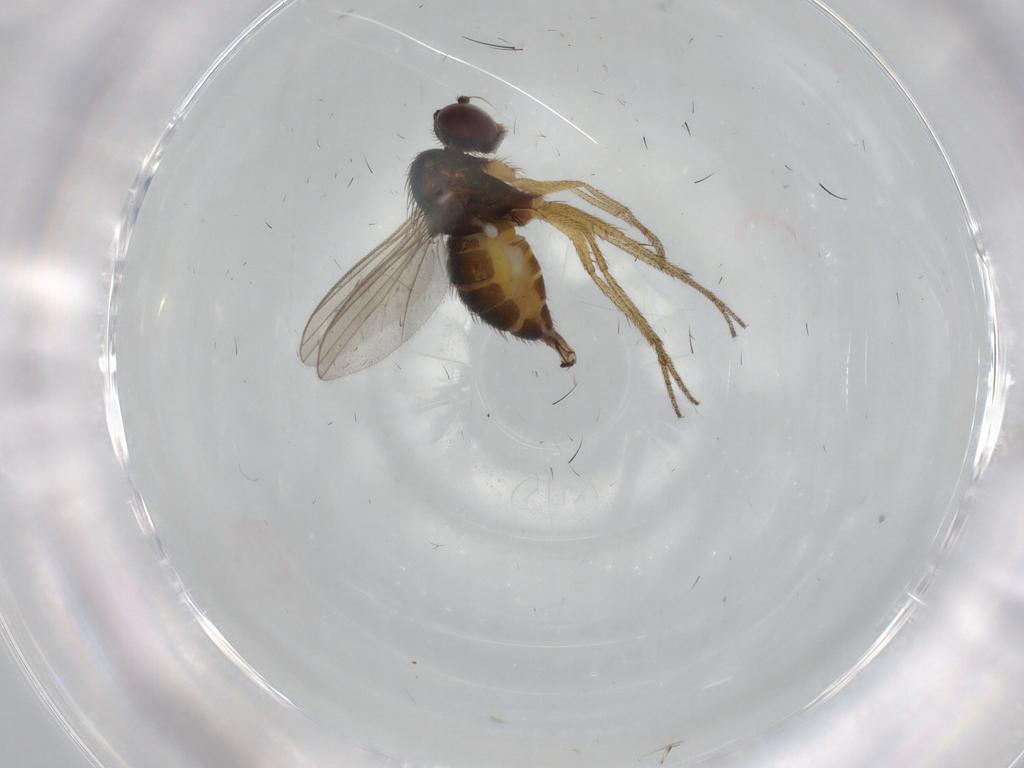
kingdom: Animalia
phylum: Arthropoda
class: Insecta
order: Diptera
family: Dolichopodidae
